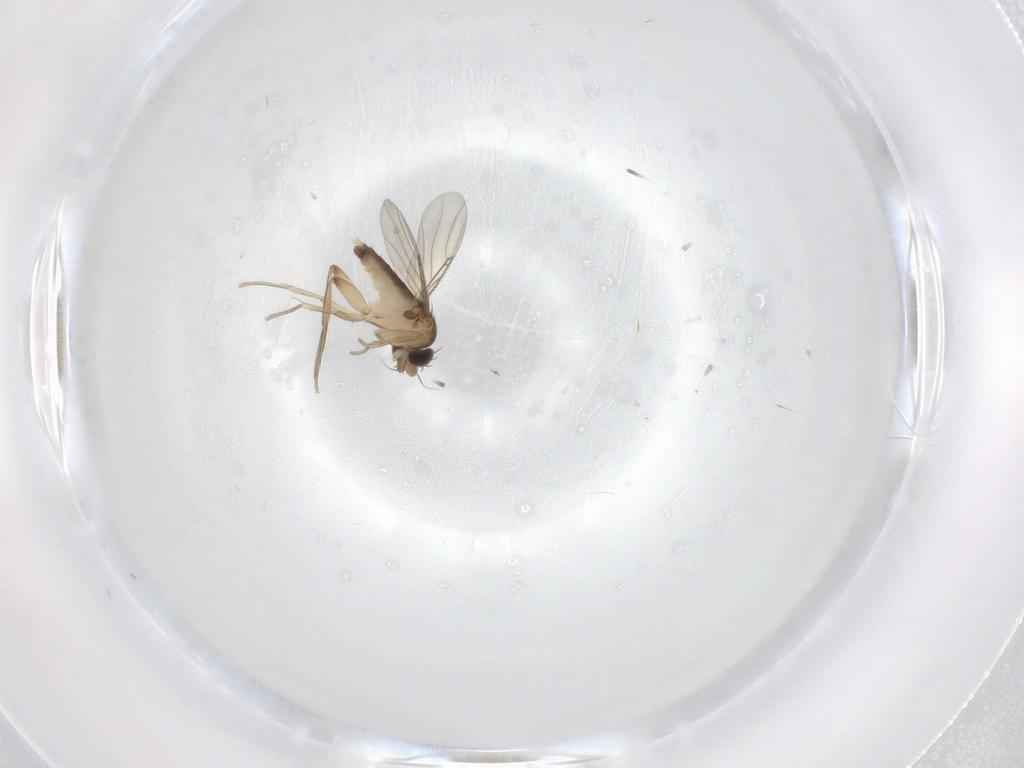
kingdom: Animalia
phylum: Arthropoda
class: Insecta
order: Diptera
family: Phoridae
